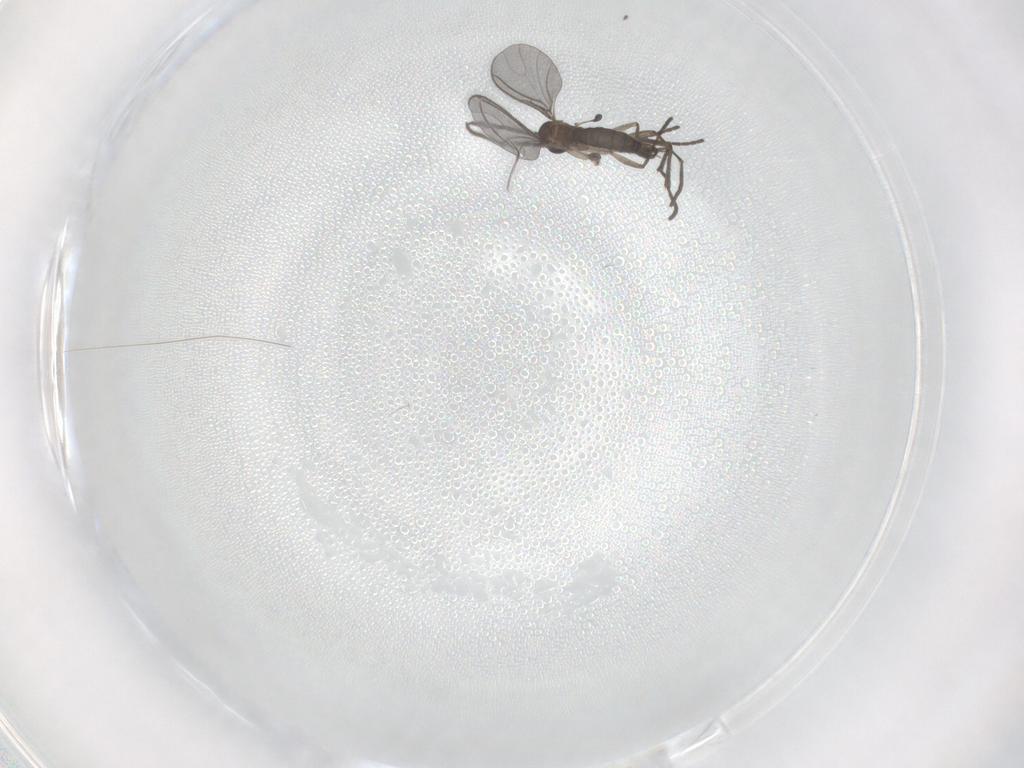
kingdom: Animalia
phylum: Arthropoda
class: Insecta
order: Diptera
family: Sciaridae
